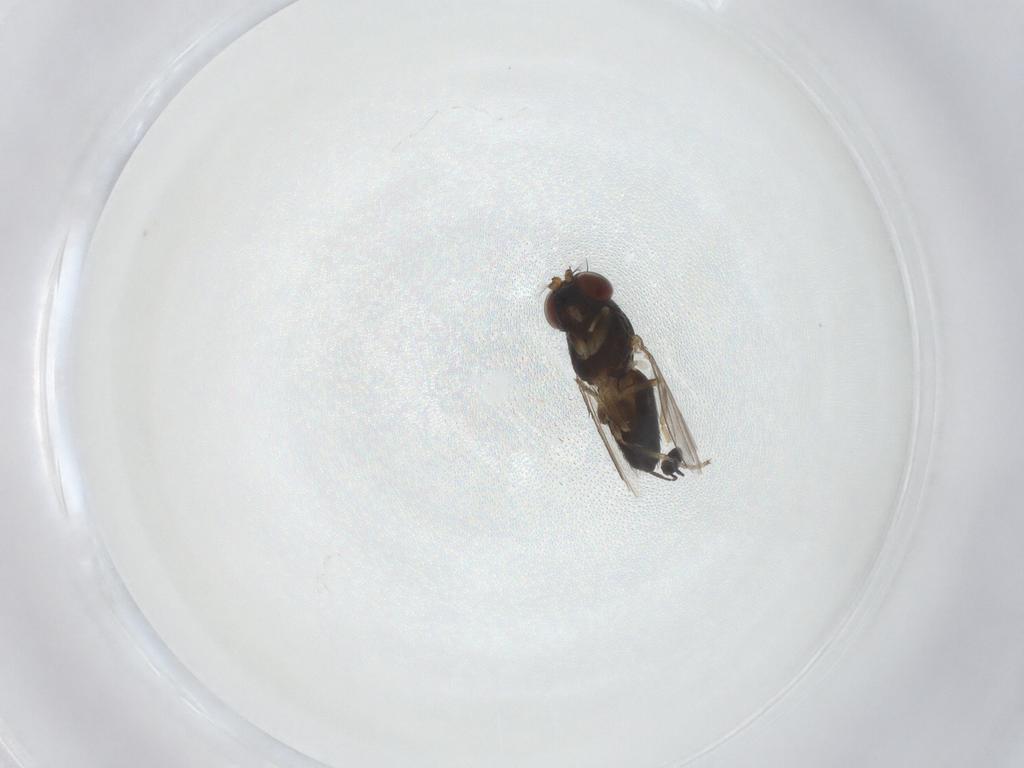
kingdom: Animalia
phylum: Arthropoda
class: Insecta
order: Diptera
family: Ephydridae
